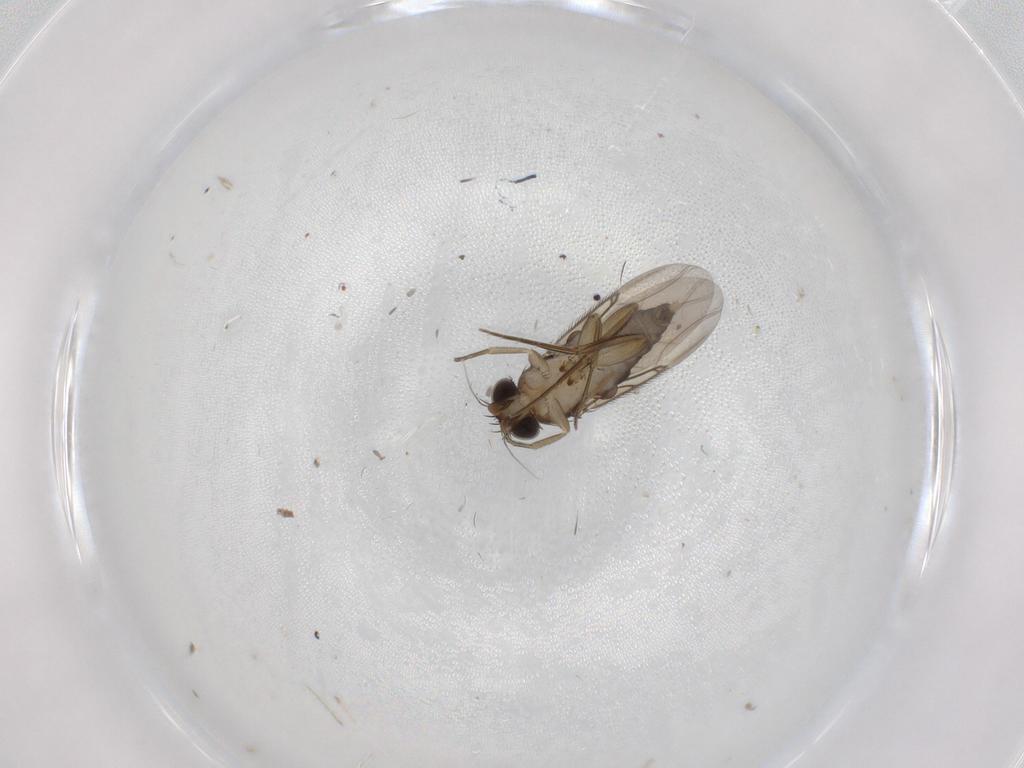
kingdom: Animalia
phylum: Arthropoda
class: Insecta
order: Diptera
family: Phoridae
